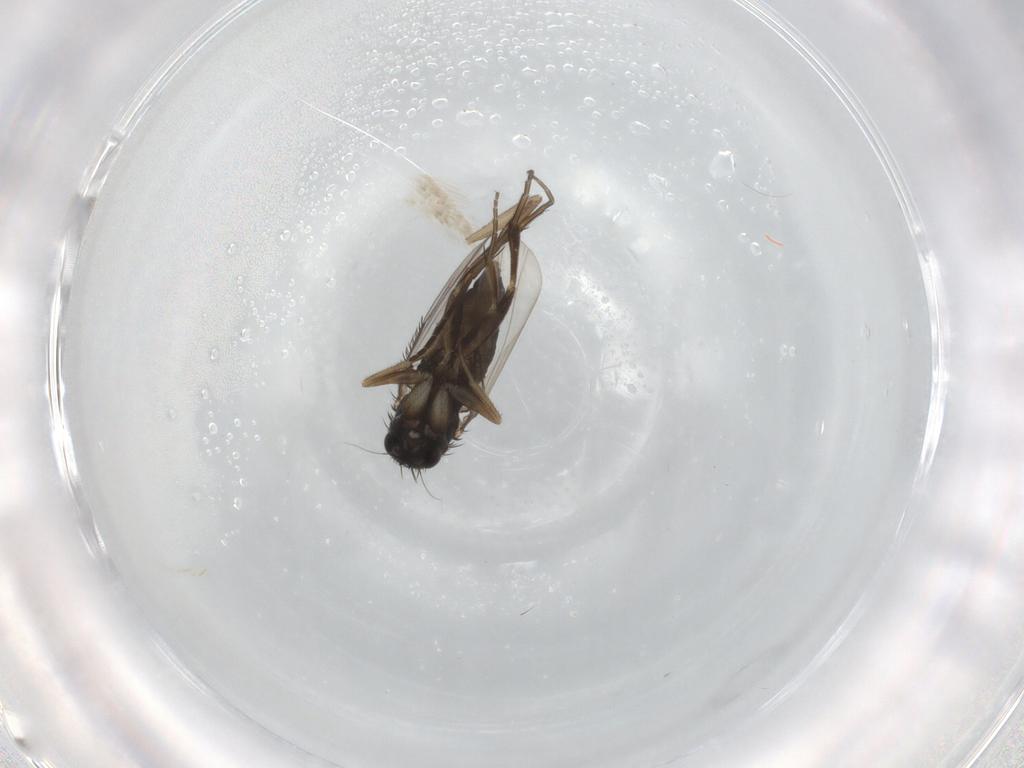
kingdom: Animalia
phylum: Arthropoda
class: Insecta
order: Diptera
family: Phoridae
